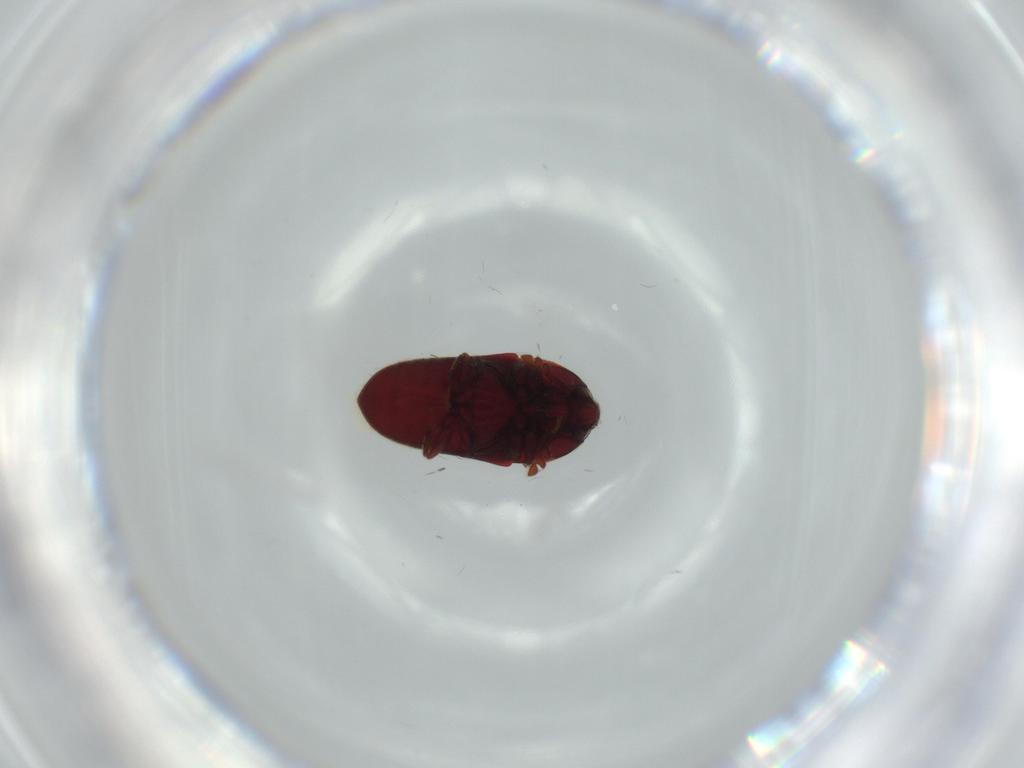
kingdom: Animalia
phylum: Arthropoda
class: Insecta
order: Coleoptera
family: Throscidae
